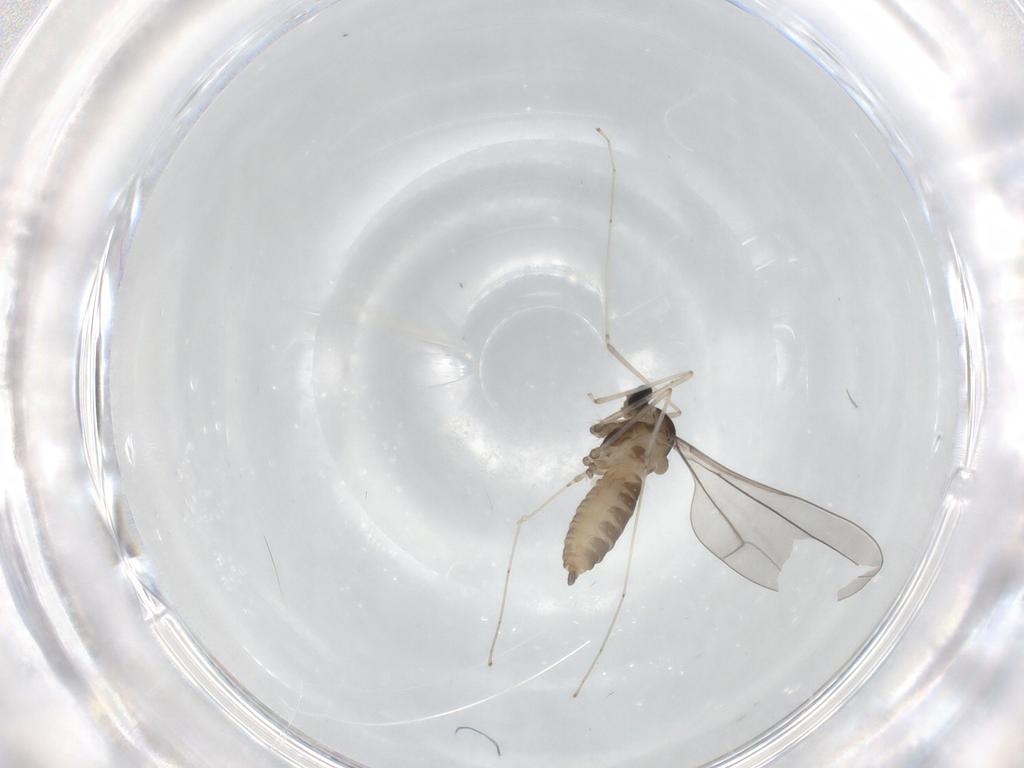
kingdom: Animalia
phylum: Arthropoda
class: Insecta
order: Diptera
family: Cecidomyiidae
